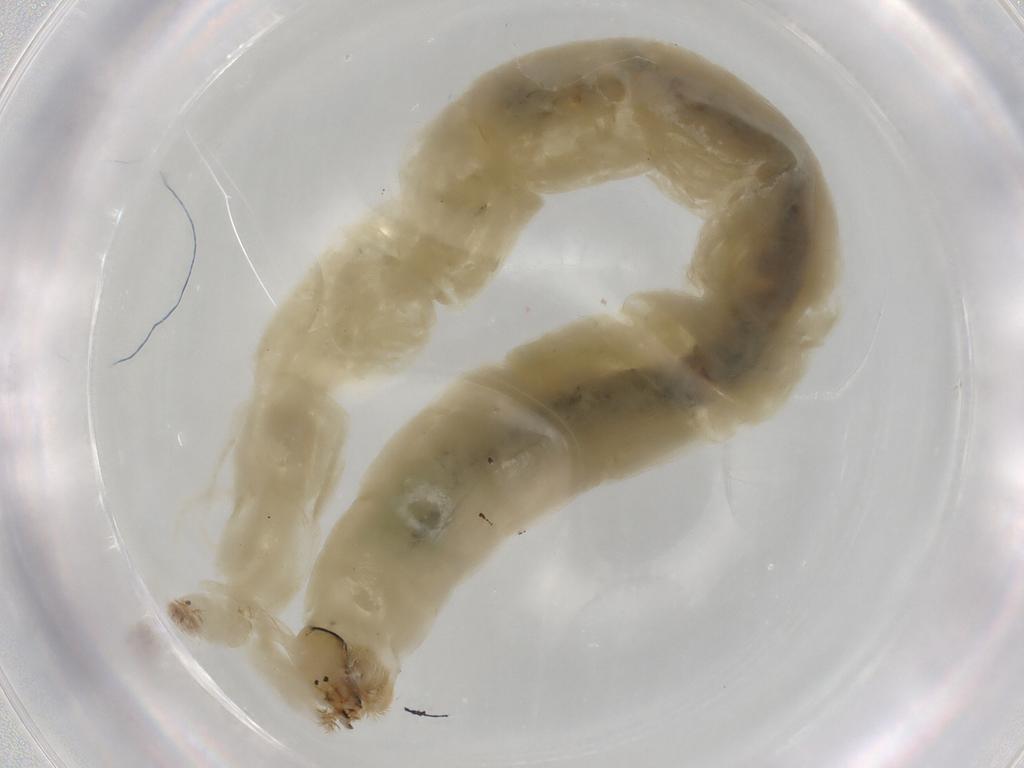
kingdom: Animalia
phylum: Arthropoda
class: Insecta
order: Diptera
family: Chironomidae
